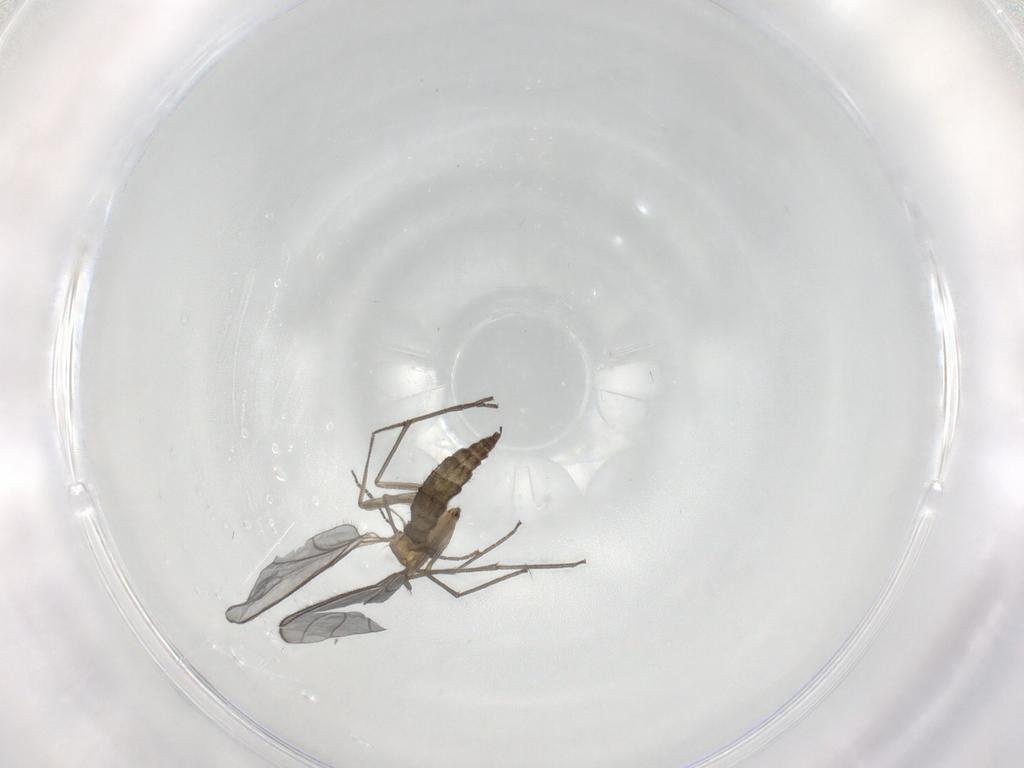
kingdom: Animalia
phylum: Arthropoda
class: Insecta
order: Diptera
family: Sciaridae
